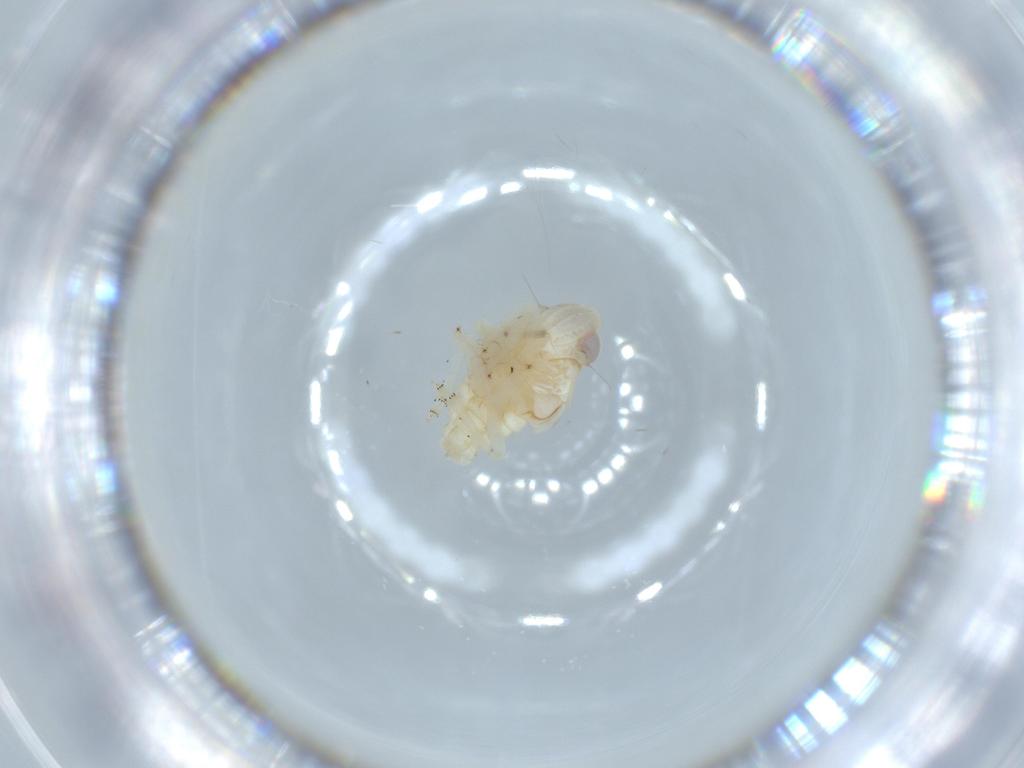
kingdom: Animalia
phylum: Arthropoda
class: Insecta
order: Hemiptera
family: Nogodinidae
